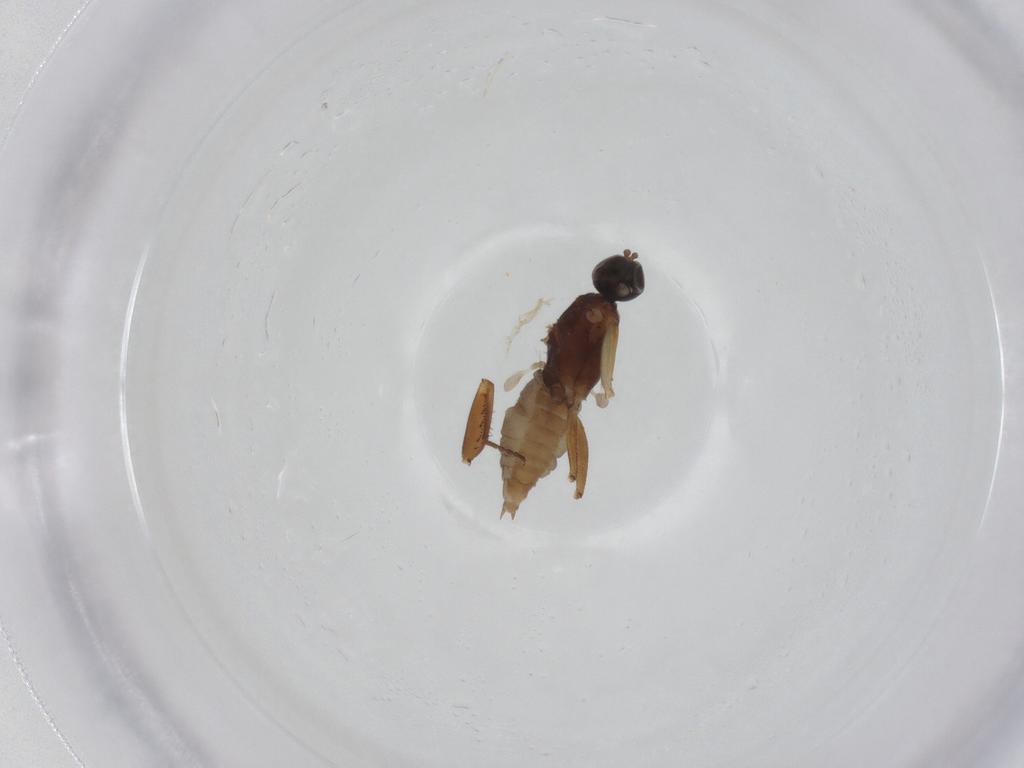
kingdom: Animalia
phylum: Arthropoda
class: Insecta
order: Diptera
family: Empididae
